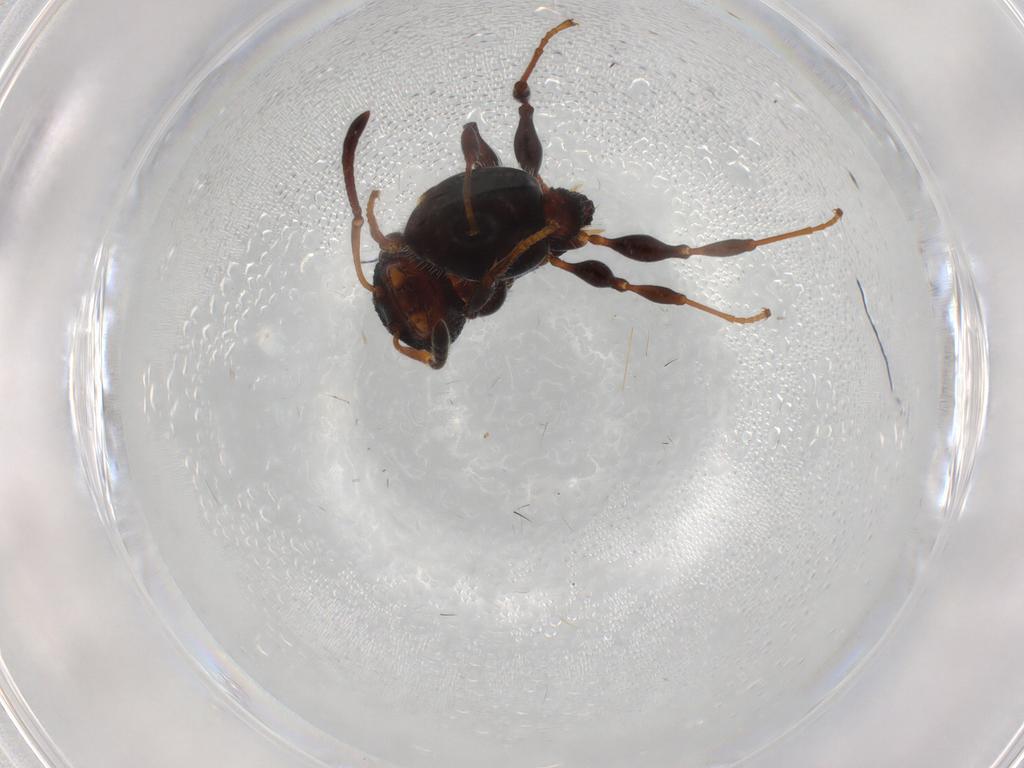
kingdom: Animalia
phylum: Arthropoda
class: Insecta
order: Hymenoptera
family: Formicidae
